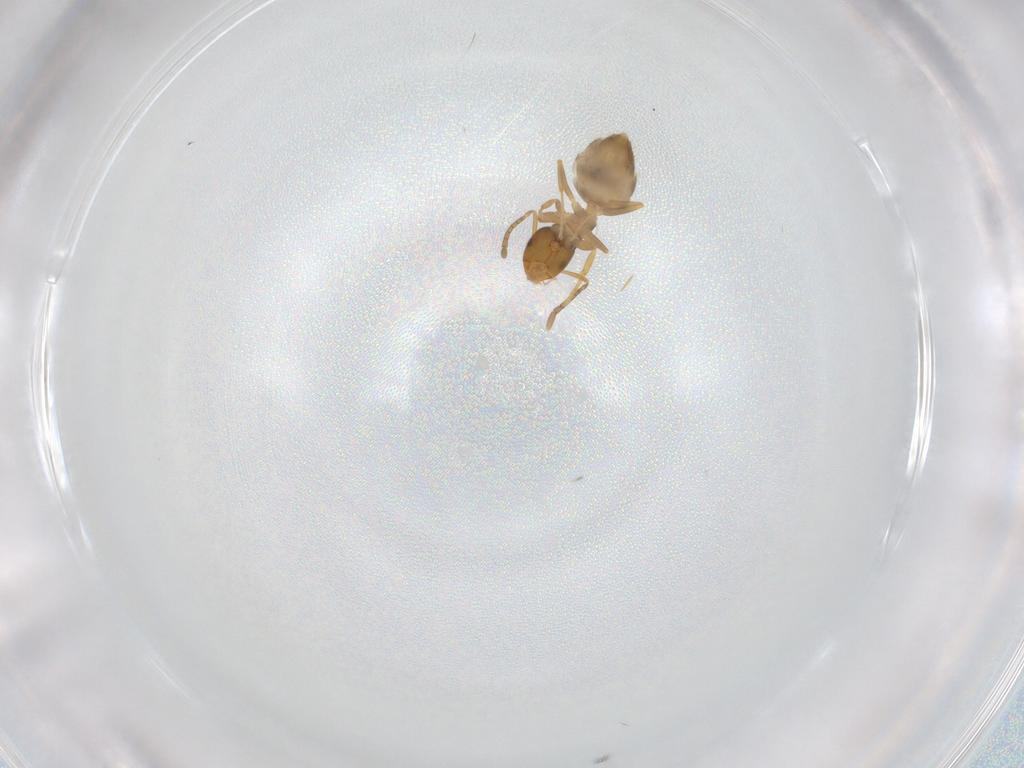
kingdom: Animalia
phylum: Arthropoda
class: Insecta
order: Hymenoptera
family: Formicidae
